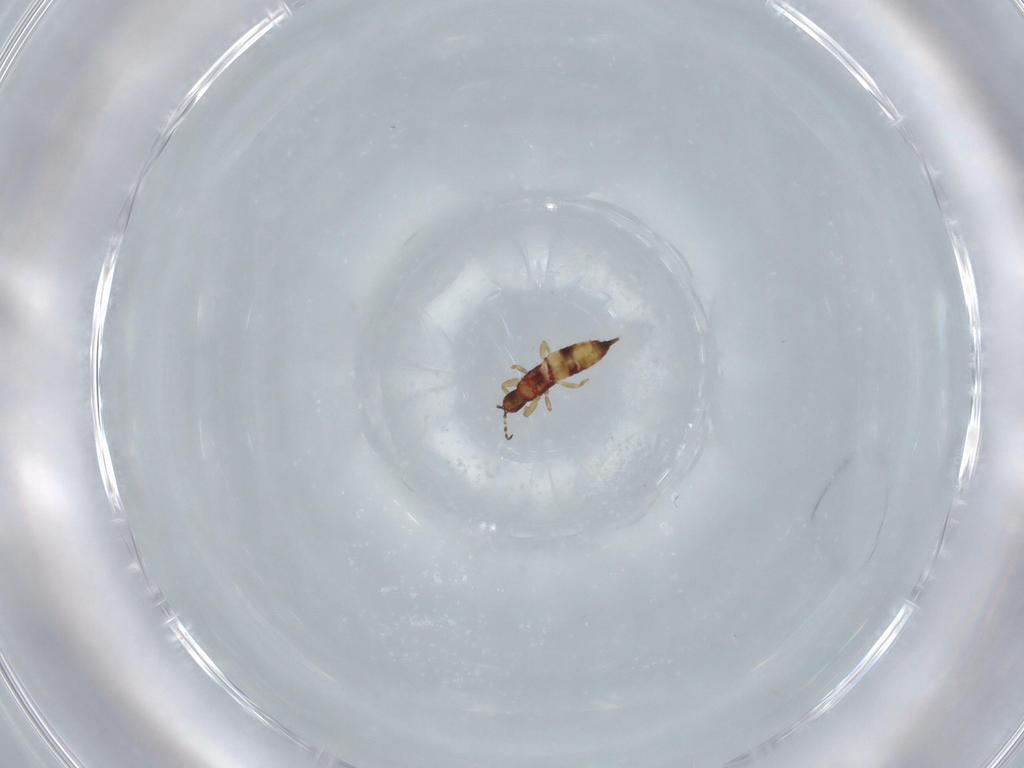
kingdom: Animalia
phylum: Arthropoda
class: Insecta
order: Thysanoptera
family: Phlaeothripidae
